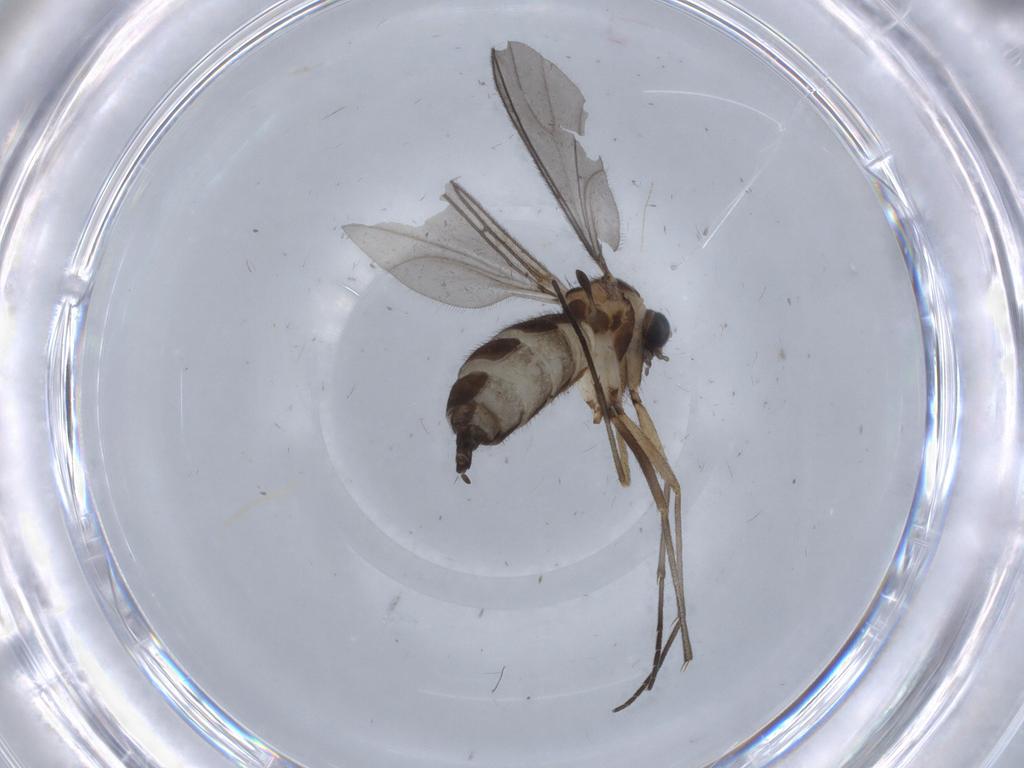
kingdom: Animalia
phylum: Arthropoda
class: Insecta
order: Diptera
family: Sciaridae
